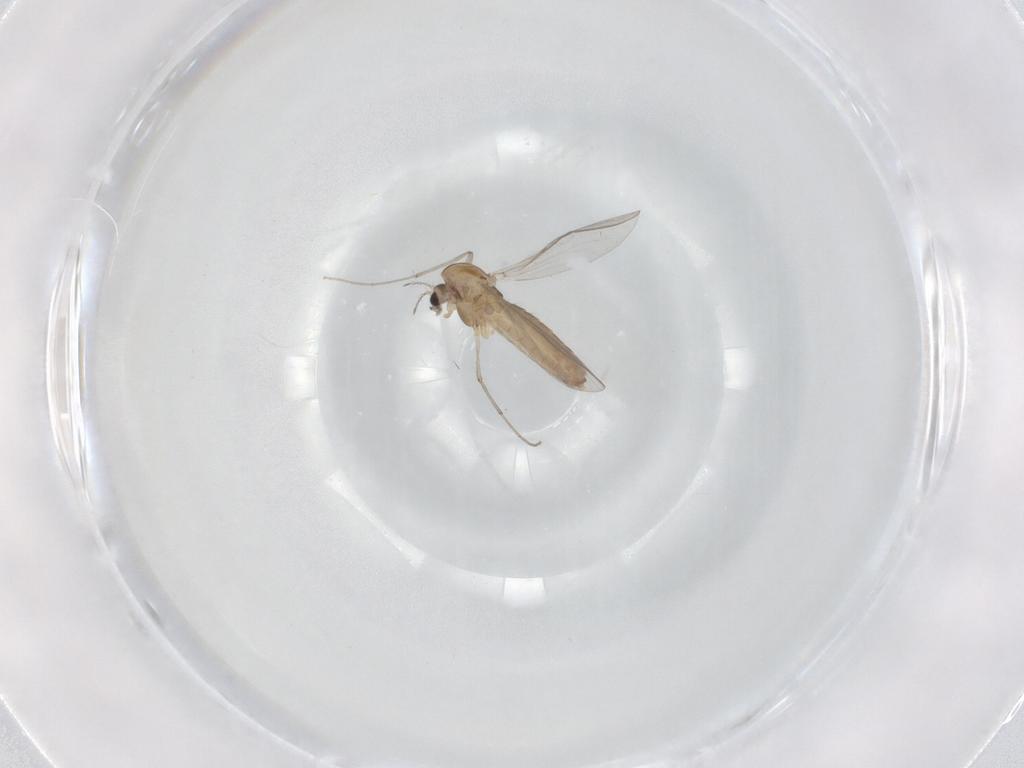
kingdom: Animalia
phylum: Arthropoda
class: Insecta
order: Diptera
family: Chironomidae
